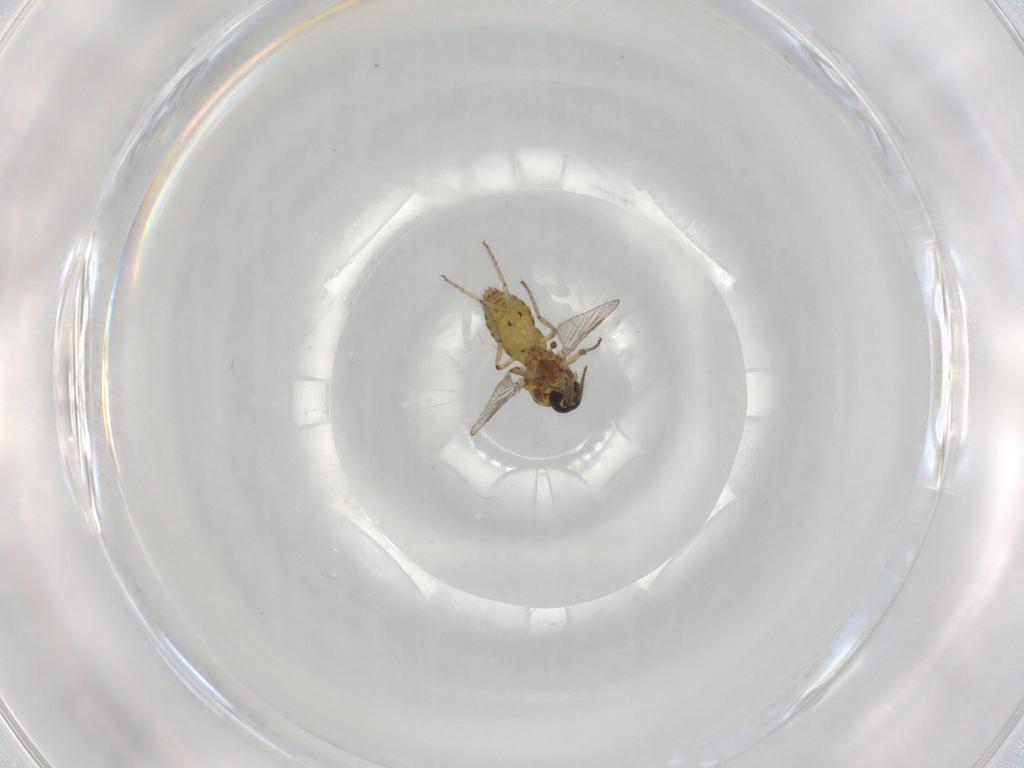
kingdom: Animalia
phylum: Arthropoda
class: Insecta
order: Diptera
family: Ceratopogonidae
